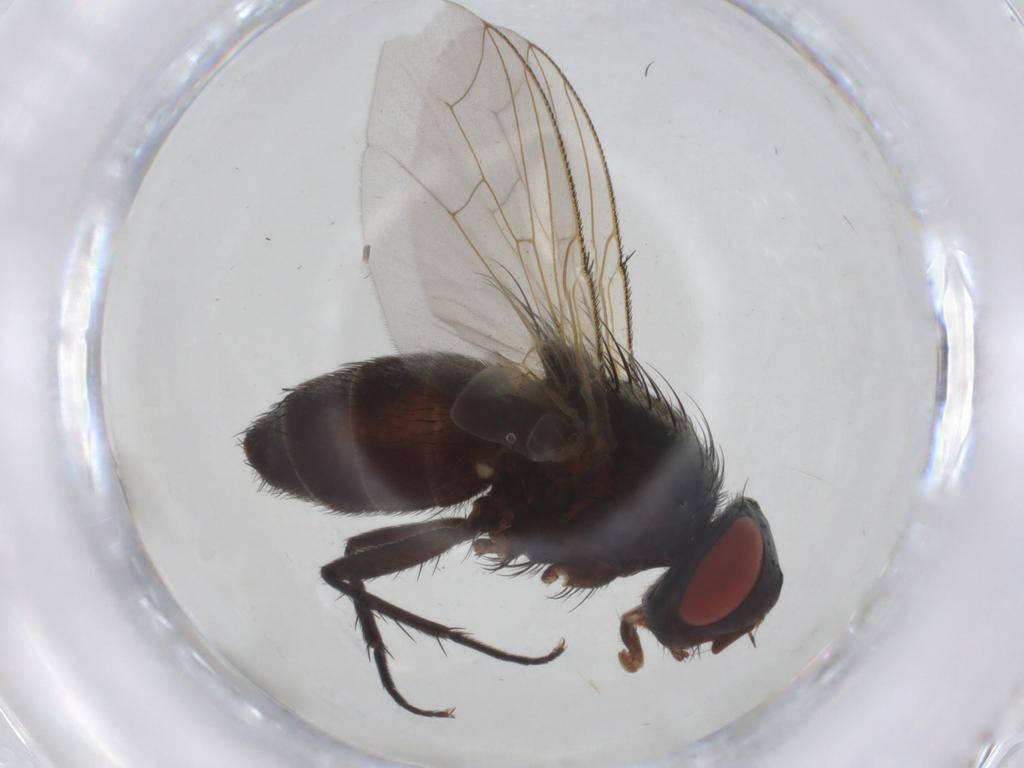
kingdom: Animalia
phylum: Arthropoda
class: Insecta
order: Diptera
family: Sarcophagidae
